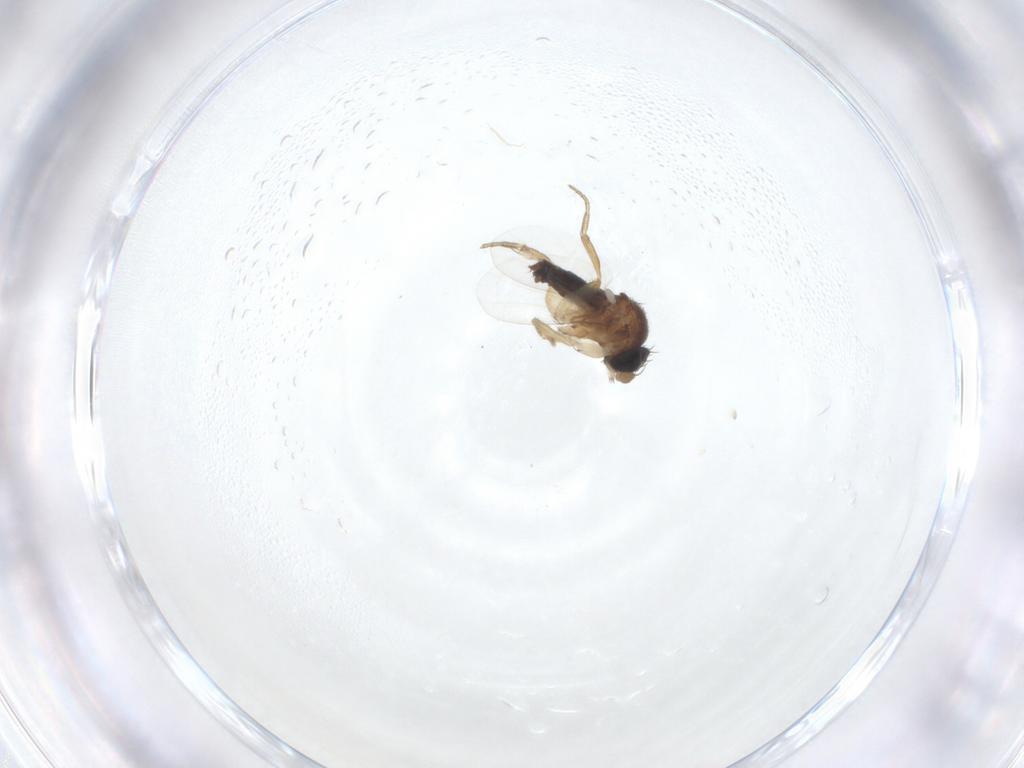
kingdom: Animalia
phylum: Arthropoda
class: Insecta
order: Diptera
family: Phoridae
